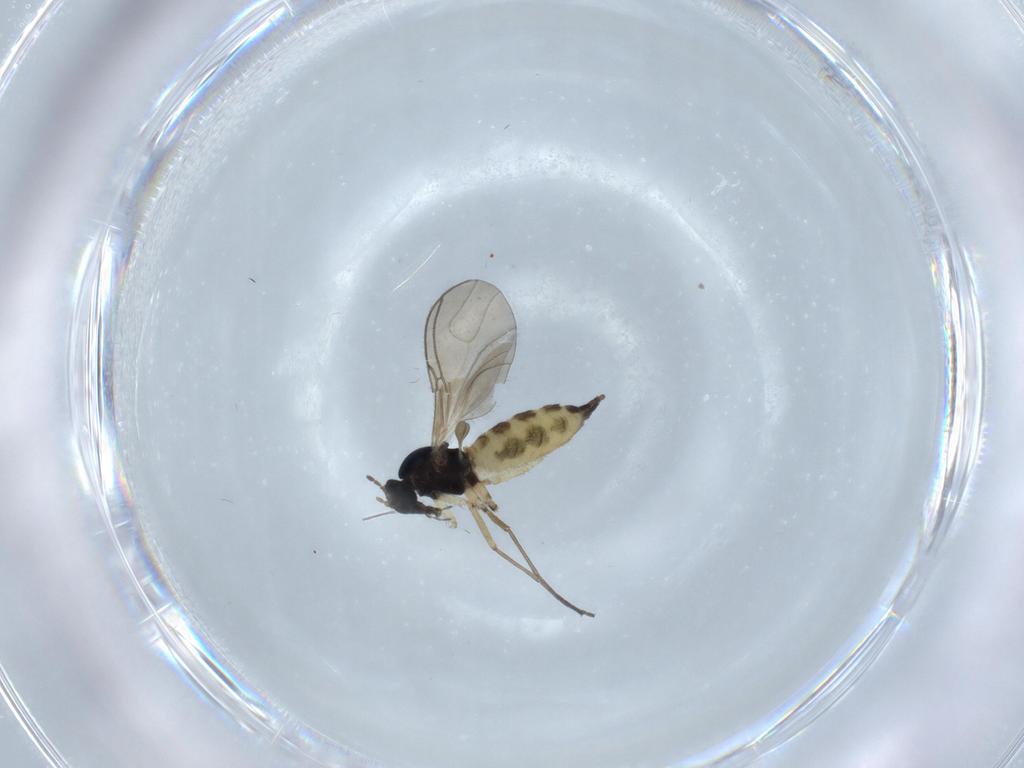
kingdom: Animalia
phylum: Arthropoda
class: Insecta
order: Diptera
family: Sciaridae
